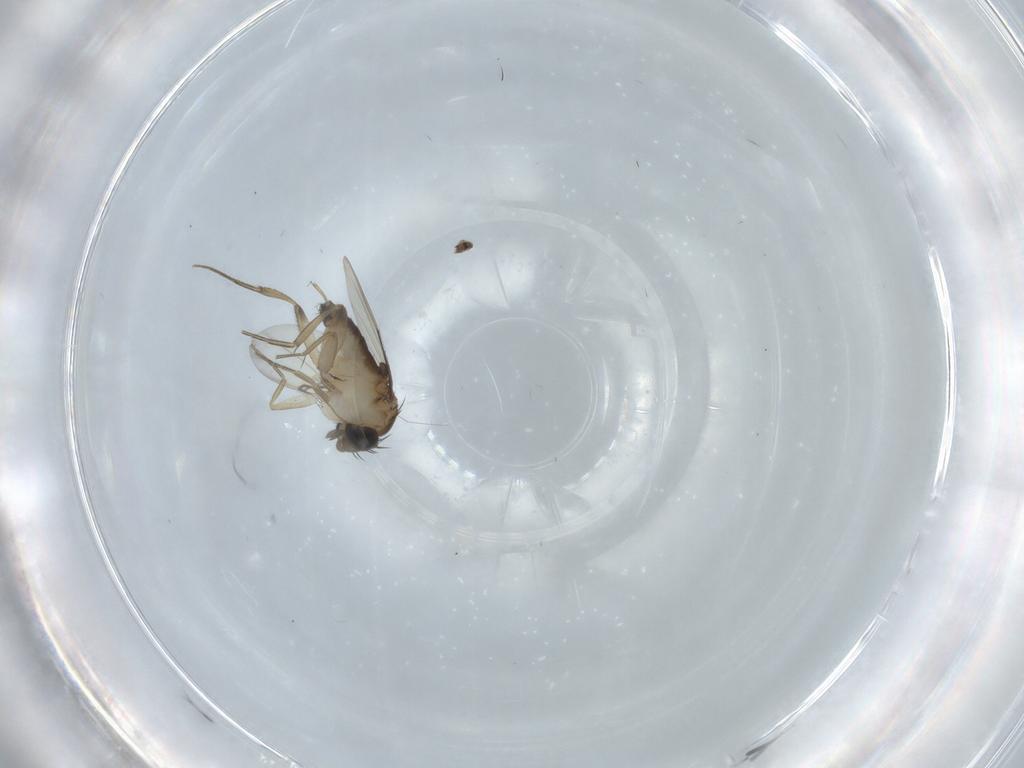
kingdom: Animalia
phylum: Arthropoda
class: Insecta
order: Diptera
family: Phoridae
